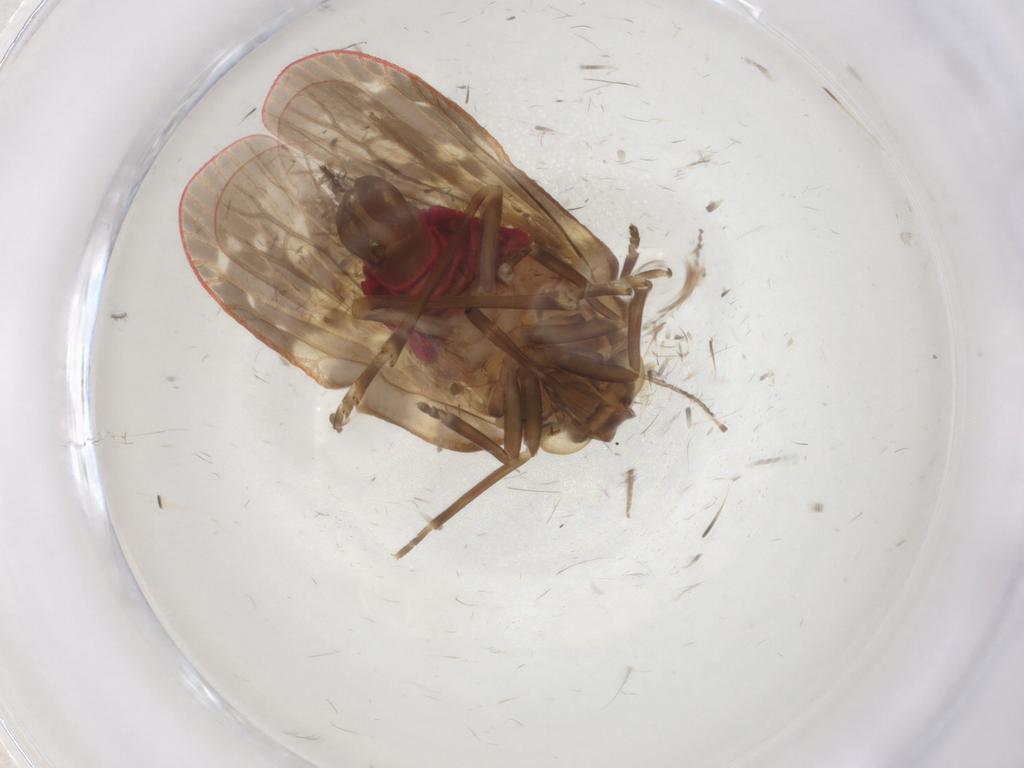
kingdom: Animalia
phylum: Arthropoda
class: Insecta
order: Hemiptera
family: Achilidae
